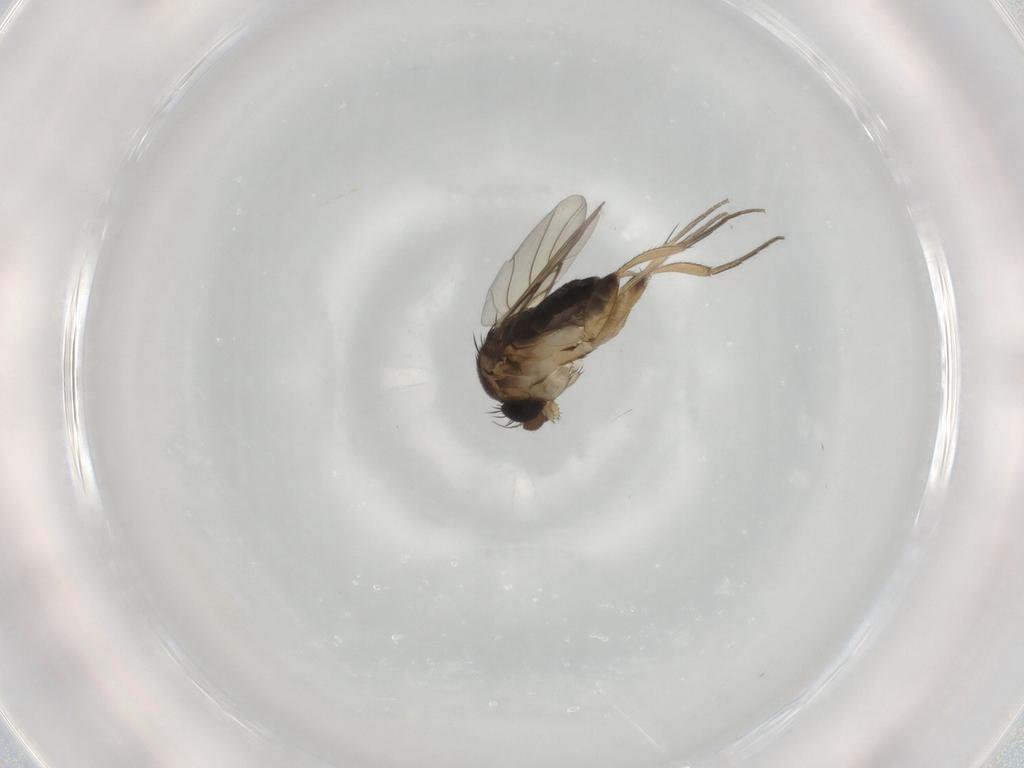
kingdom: Animalia
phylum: Arthropoda
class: Insecta
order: Diptera
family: Phoridae
